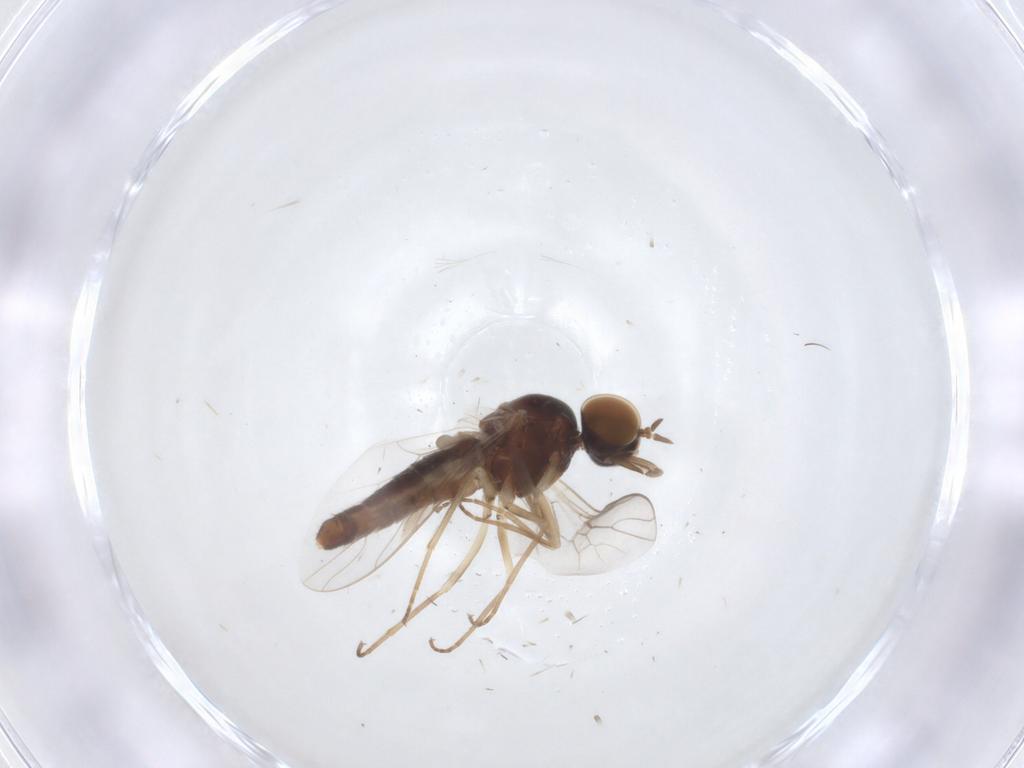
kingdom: Animalia
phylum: Arthropoda
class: Insecta
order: Diptera
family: Scenopinidae
